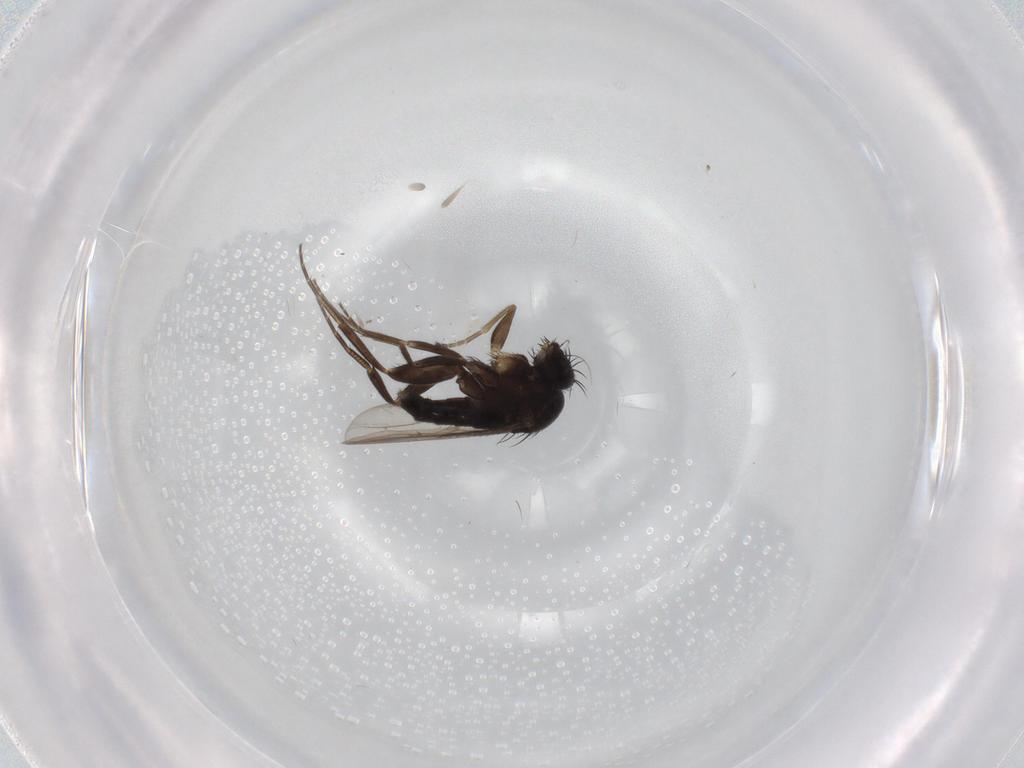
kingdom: Animalia
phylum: Arthropoda
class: Insecta
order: Diptera
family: Phoridae
